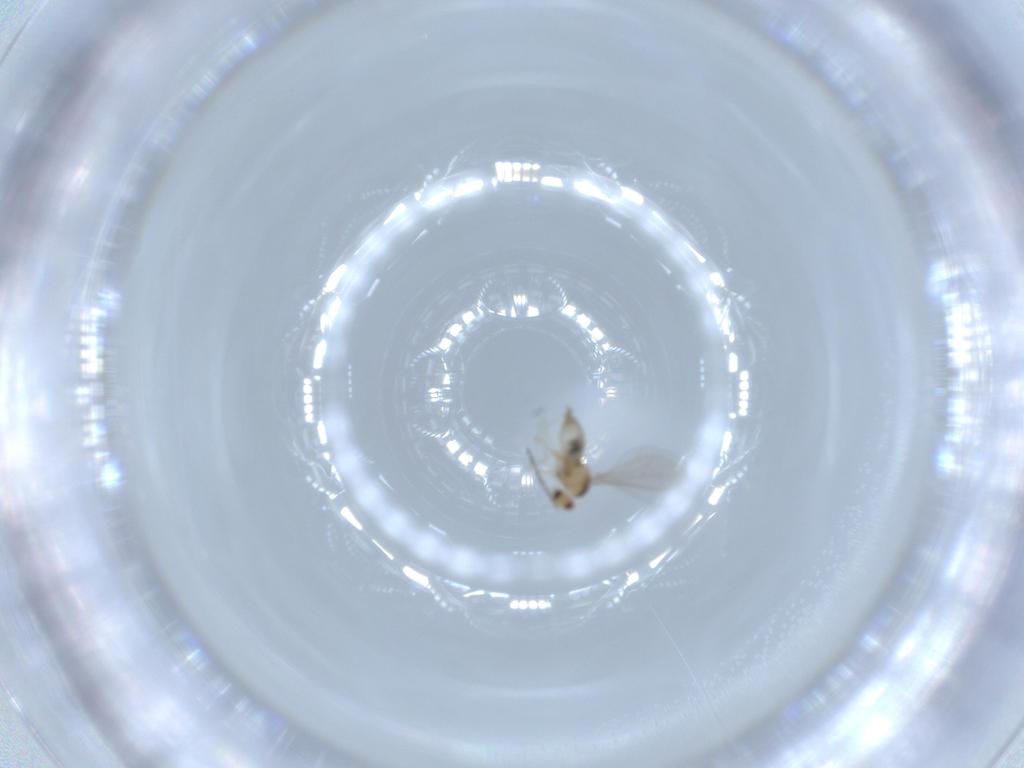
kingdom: Animalia
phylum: Arthropoda
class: Insecta
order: Diptera
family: Cecidomyiidae
